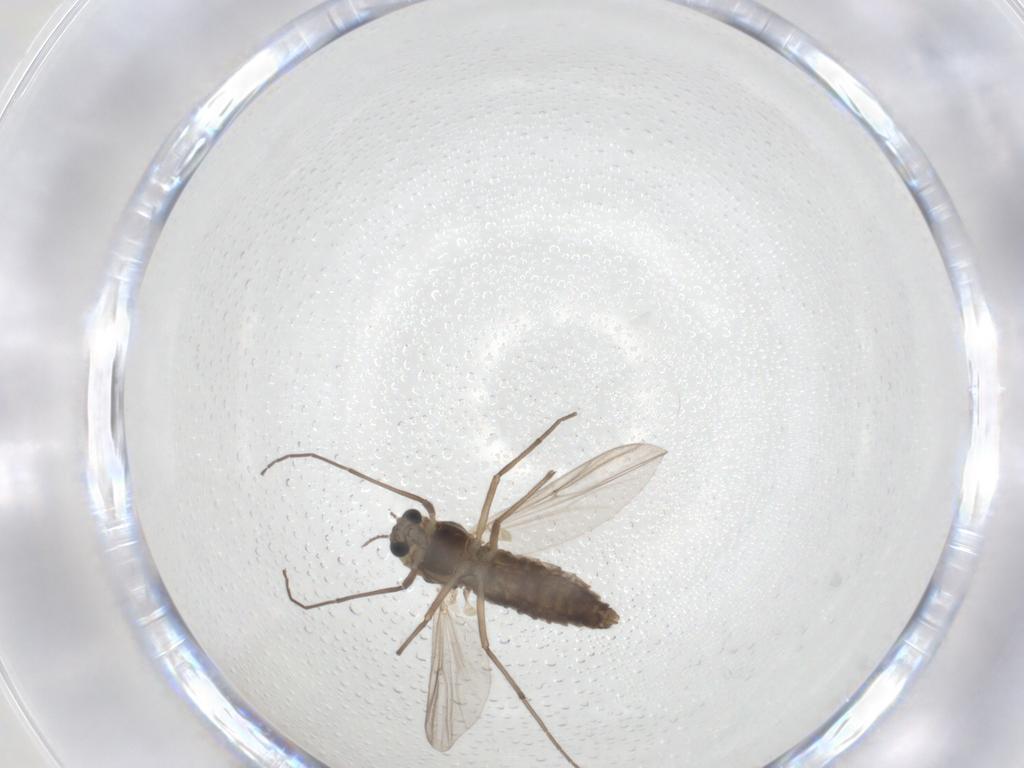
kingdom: Animalia
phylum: Arthropoda
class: Insecta
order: Diptera
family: Chironomidae
